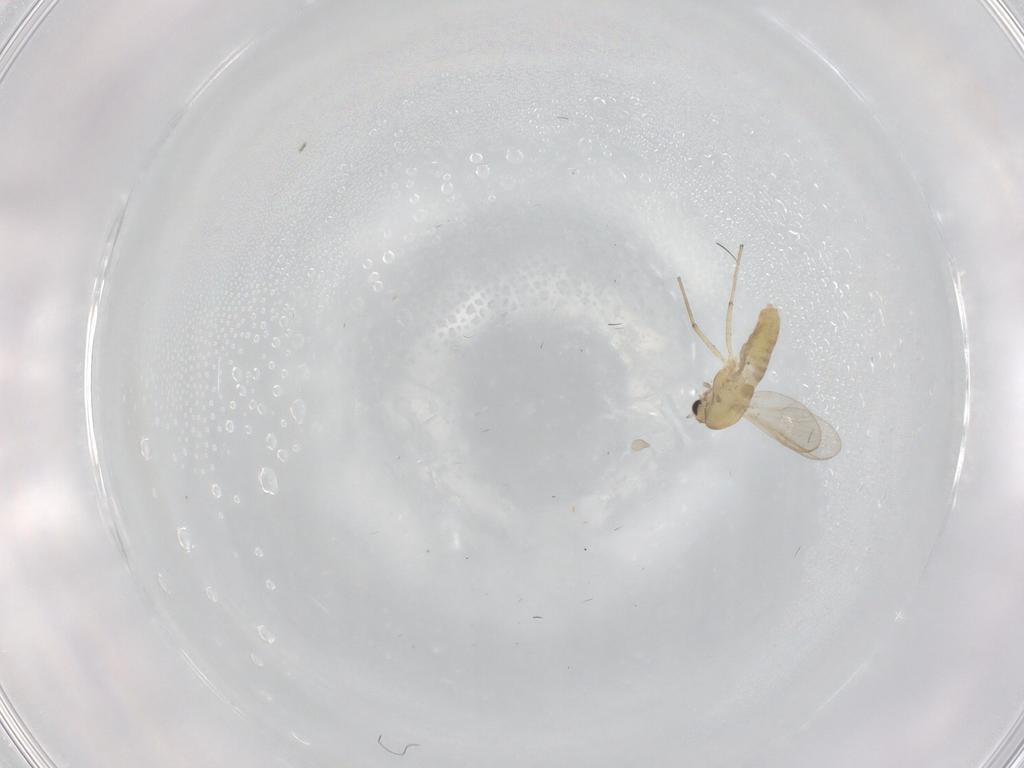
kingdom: Animalia
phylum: Arthropoda
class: Insecta
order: Diptera
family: Chironomidae
